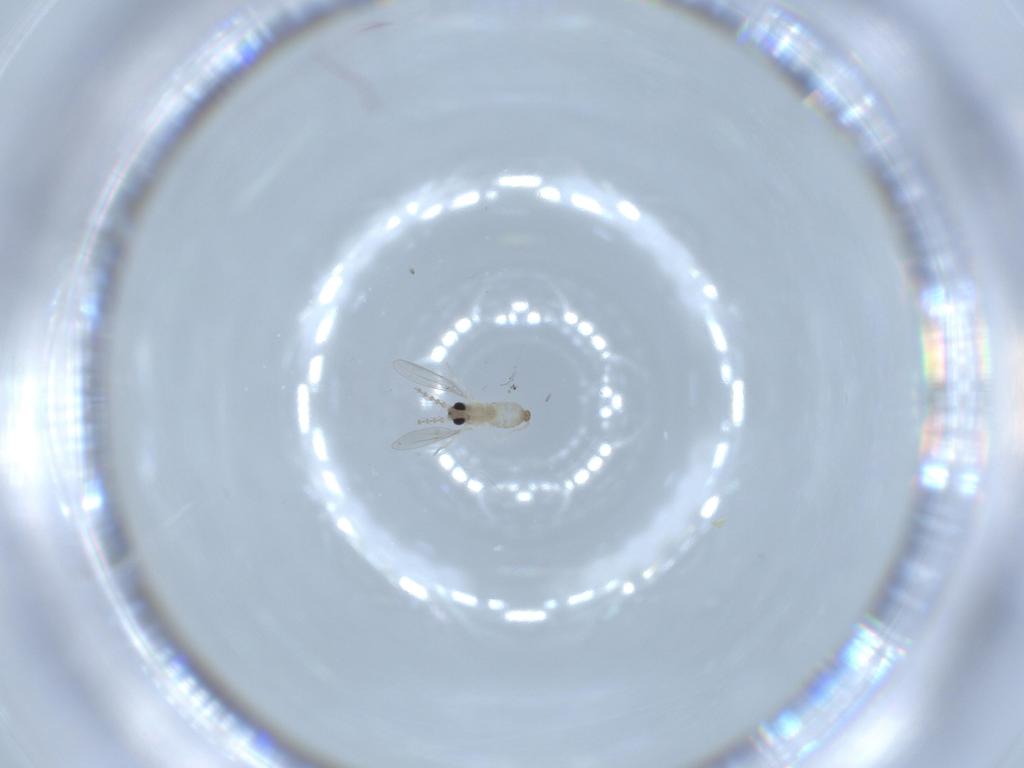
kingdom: Animalia
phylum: Arthropoda
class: Insecta
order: Diptera
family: Cecidomyiidae
